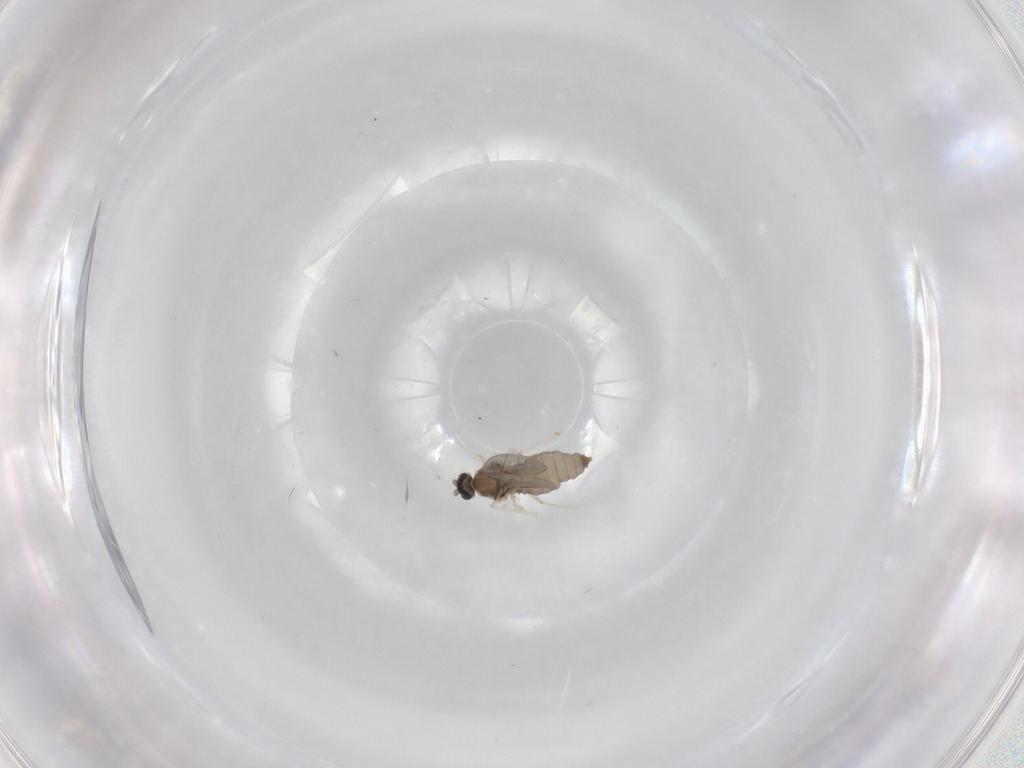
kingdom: Animalia
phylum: Arthropoda
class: Insecta
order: Diptera
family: Cecidomyiidae
